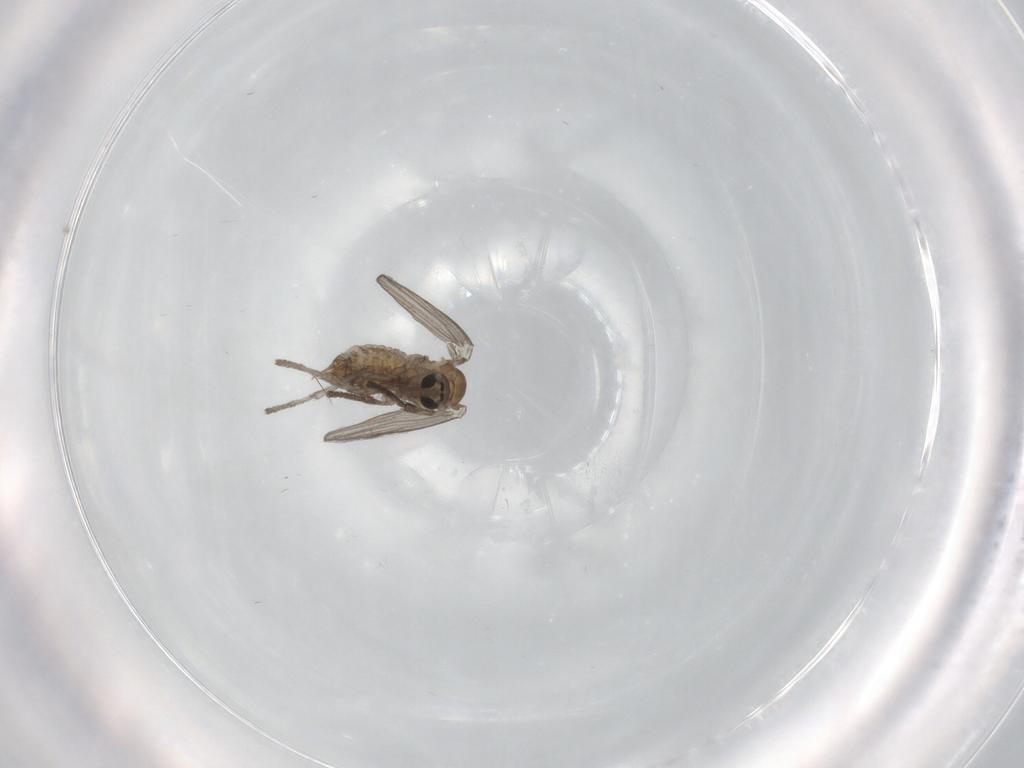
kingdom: Animalia
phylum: Arthropoda
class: Insecta
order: Diptera
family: Psychodidae
